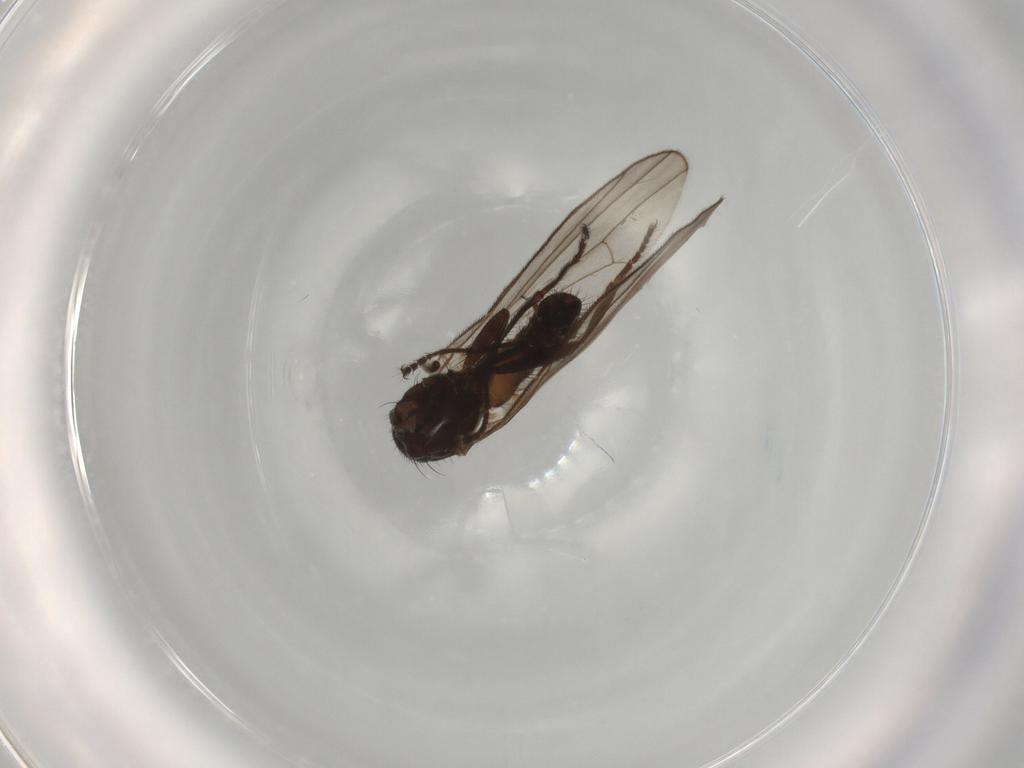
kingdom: Animalia
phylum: Arthropoda
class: Insecta
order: Diptera
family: Heleomyzidae
